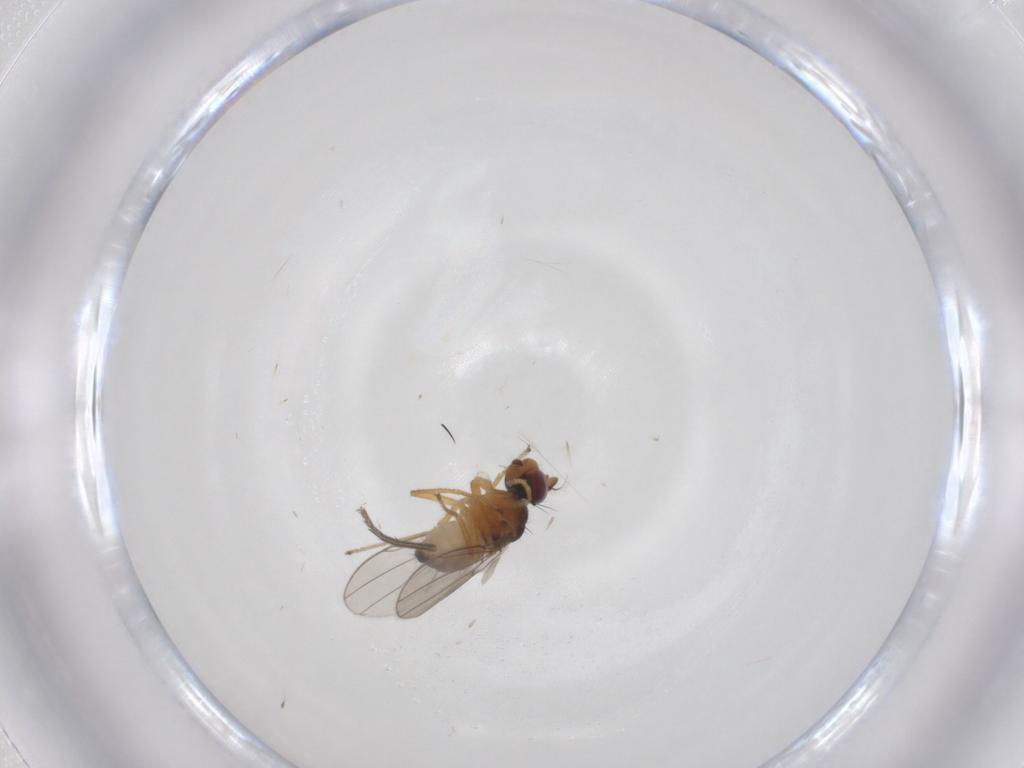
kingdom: Animalia
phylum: Arthropoda
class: Insecta
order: Diptera
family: Ephydridae
